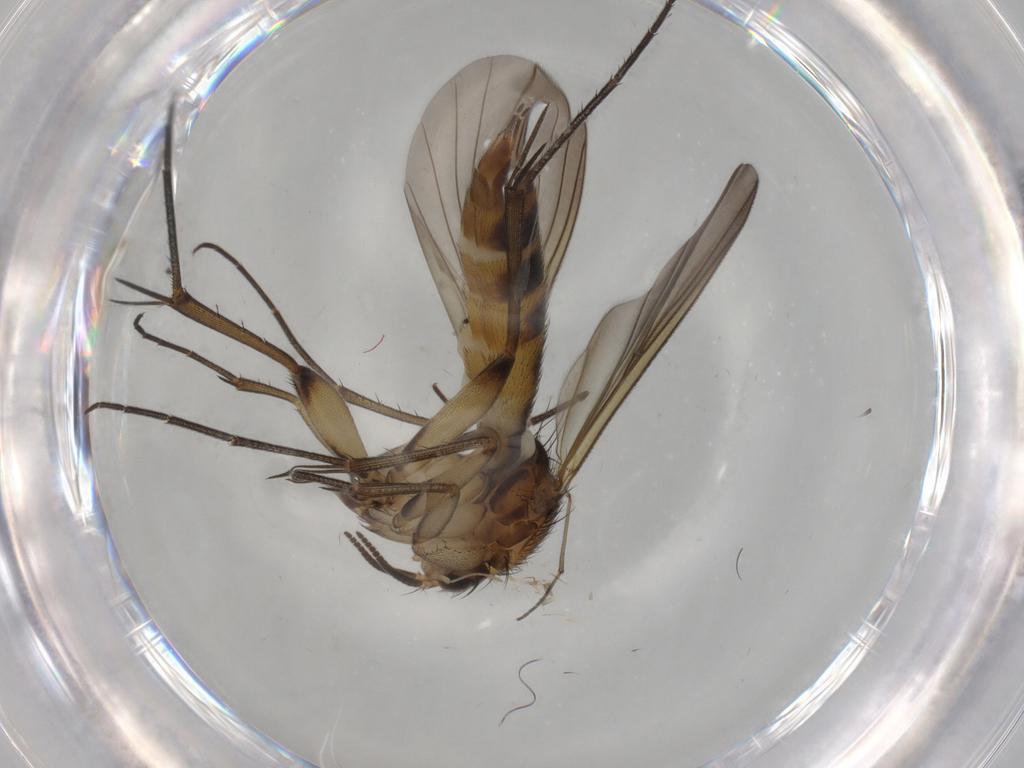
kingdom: Animalia
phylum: Arthropoda
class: Insecta
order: Diptera
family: Mycetophilidae
